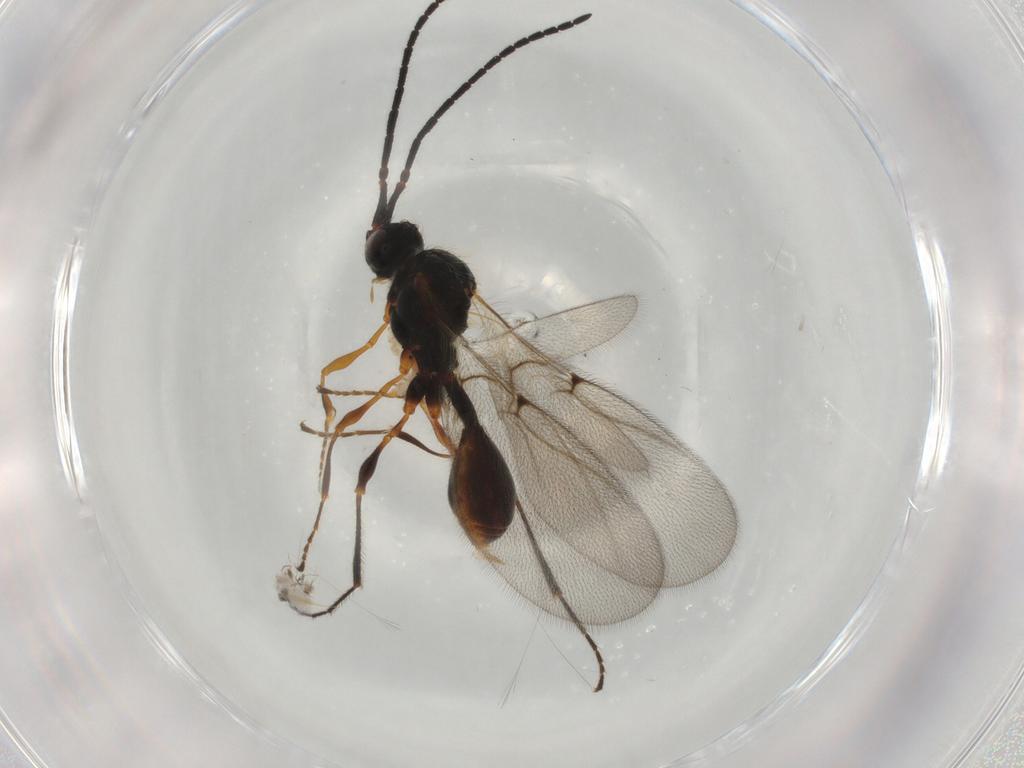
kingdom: Animalia
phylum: Arthropoda
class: Insecta
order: Hymenoptera
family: Diapriidae
